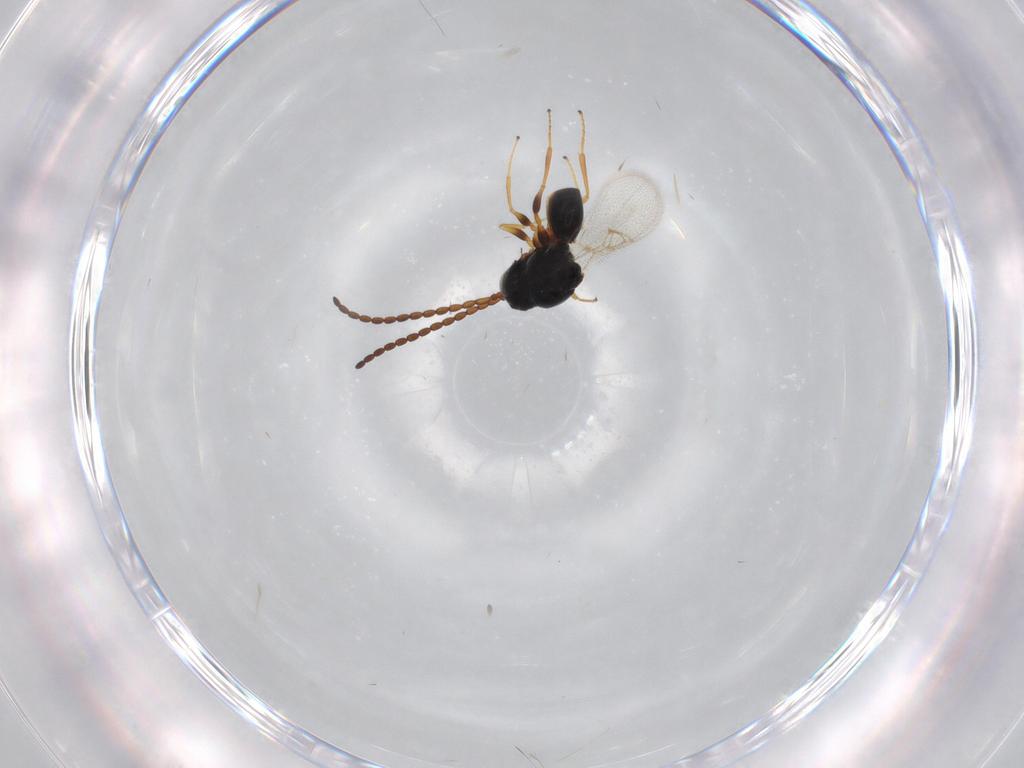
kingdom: Animalia
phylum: Arthropoda
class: Insecta
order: Hymenoptera
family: Figitidae
